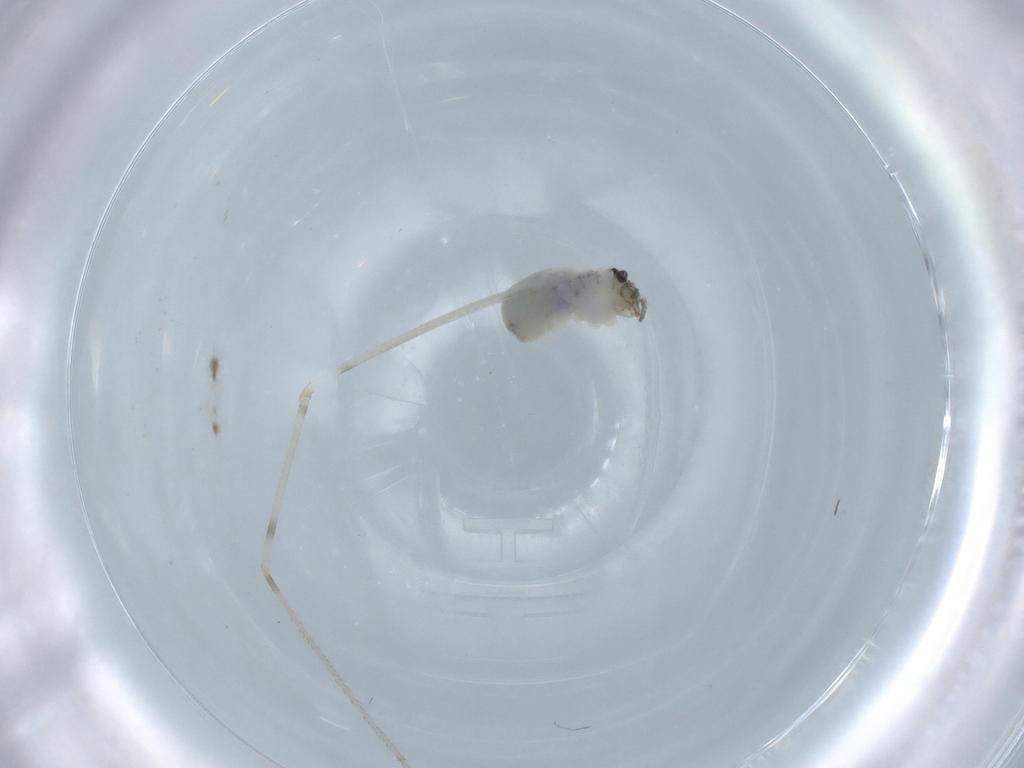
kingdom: Animalia
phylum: Arthropoda
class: Arachnida
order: Araneae
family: Pholcidae
